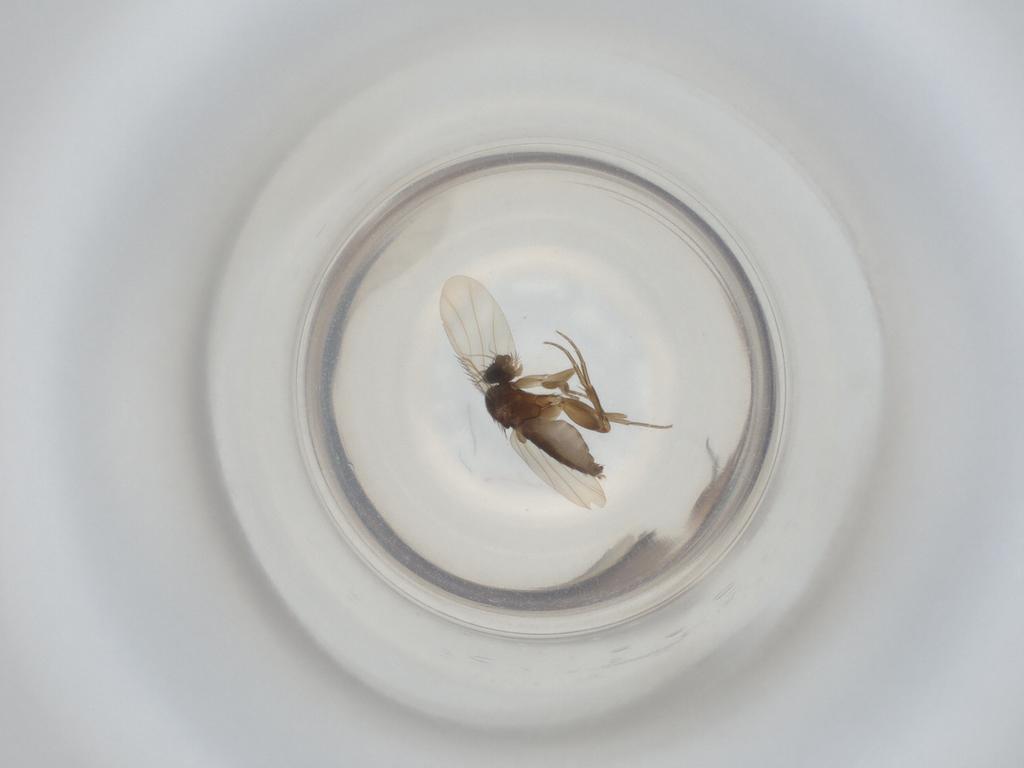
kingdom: Animalia
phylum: Arthropoda
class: Insecta
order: Diptera
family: Phoridae
